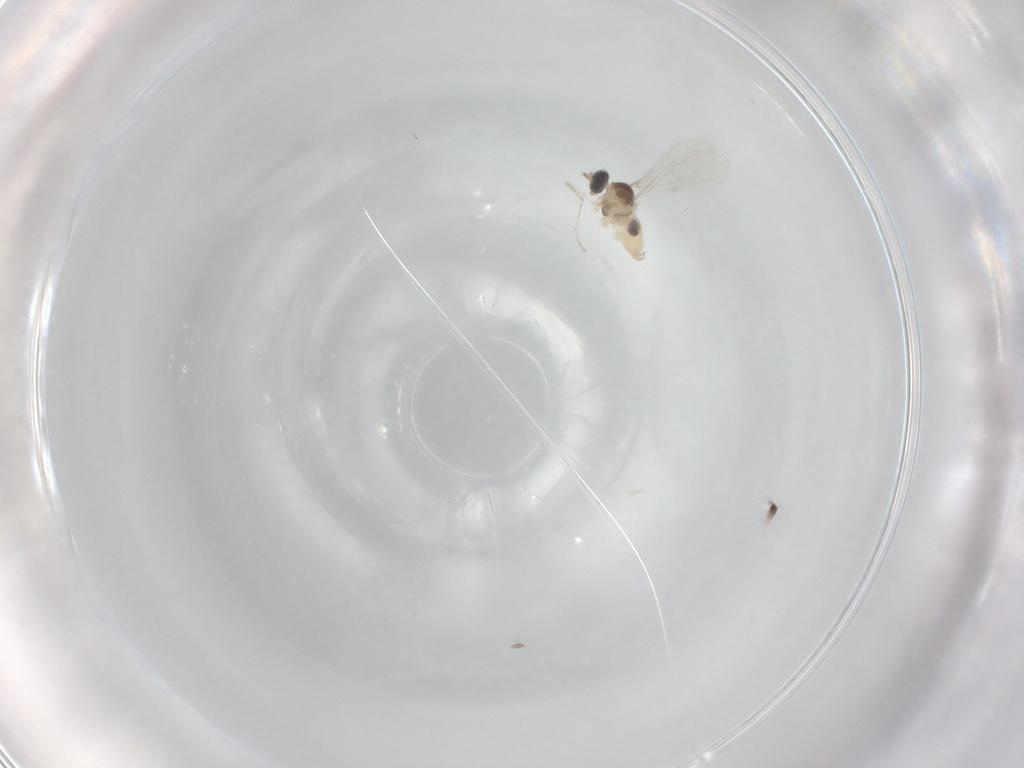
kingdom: Animalia
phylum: Arthropoda
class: Insecta
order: Diptera
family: Cecidomyiidae
